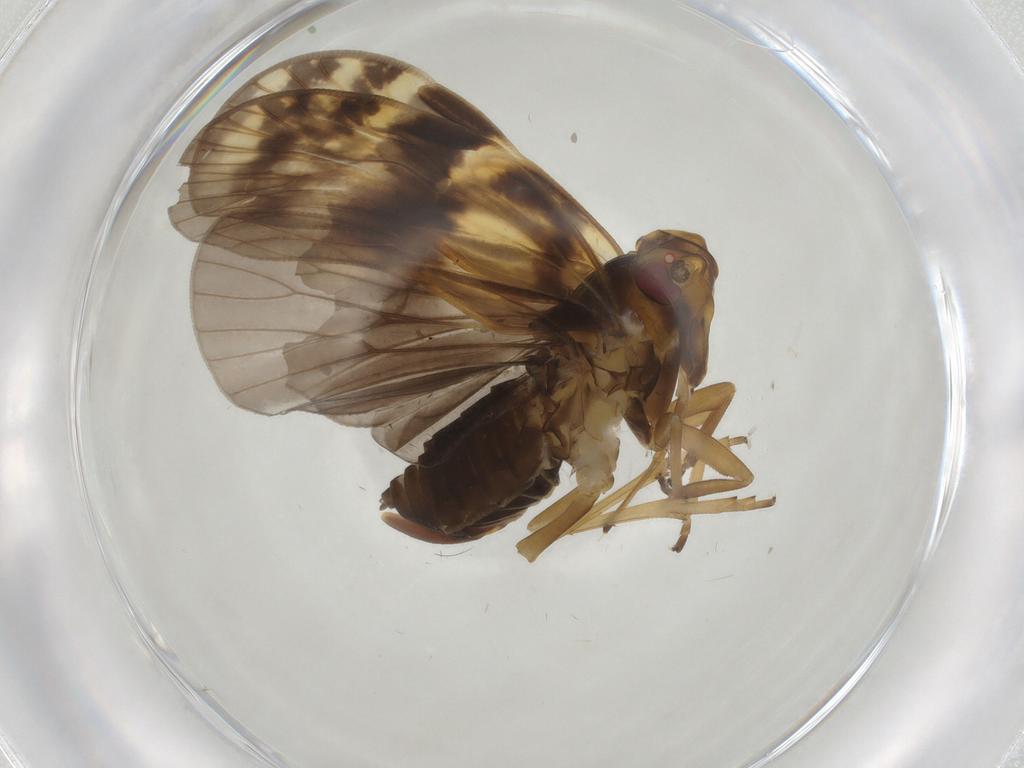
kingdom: Animalia
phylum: Arthropoda
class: Insecta
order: Hemiptera
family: Cixiidae
